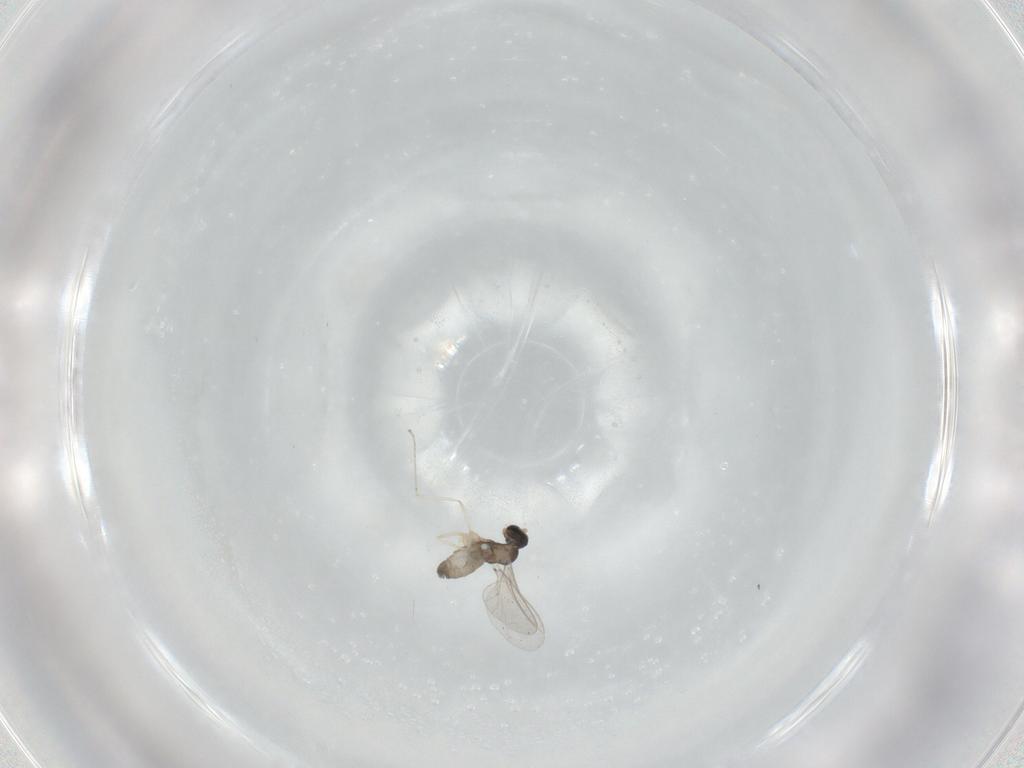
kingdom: Animalia
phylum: Arthropoda
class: Insecta
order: Diptera
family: Cecidomyiidae
